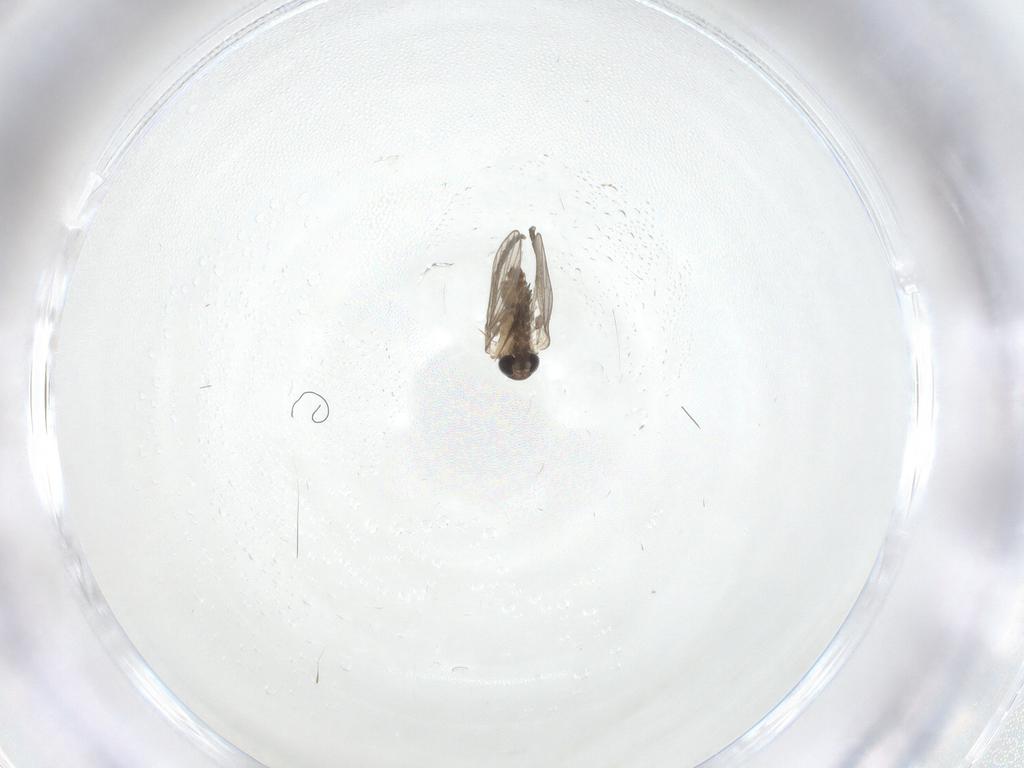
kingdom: Animalia
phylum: Arthropoda
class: Insecta
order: Diptera
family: Psychodidae
